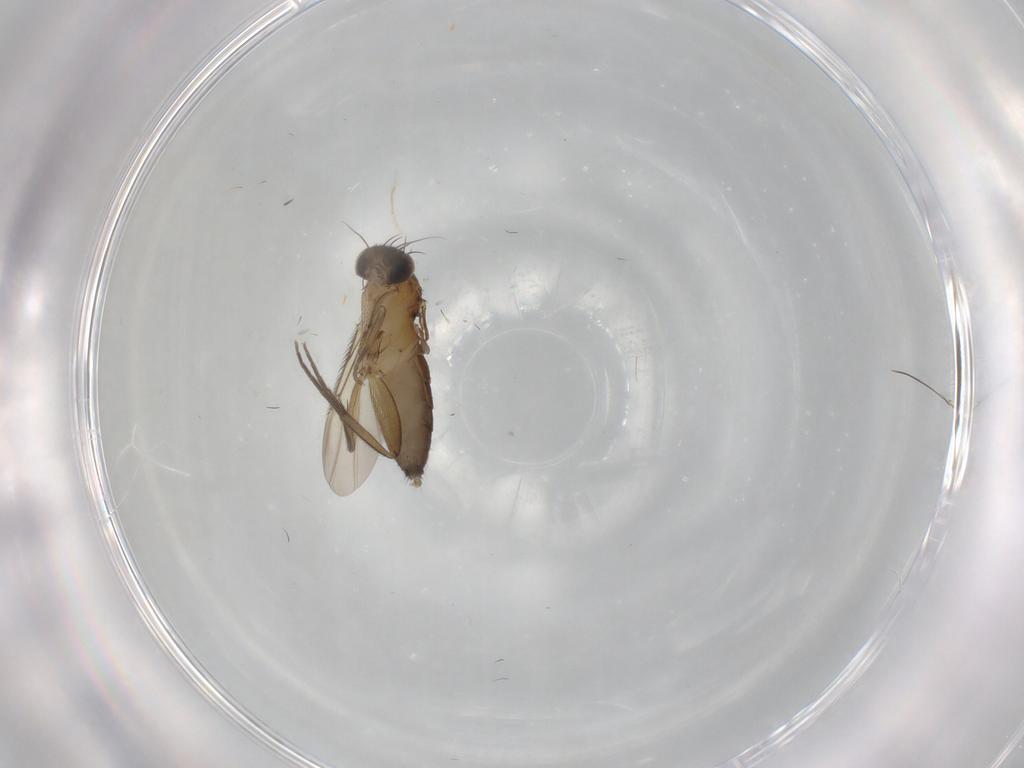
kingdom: Animalia
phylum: Arthropoda
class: Insecta
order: Diptera
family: Phoridae
